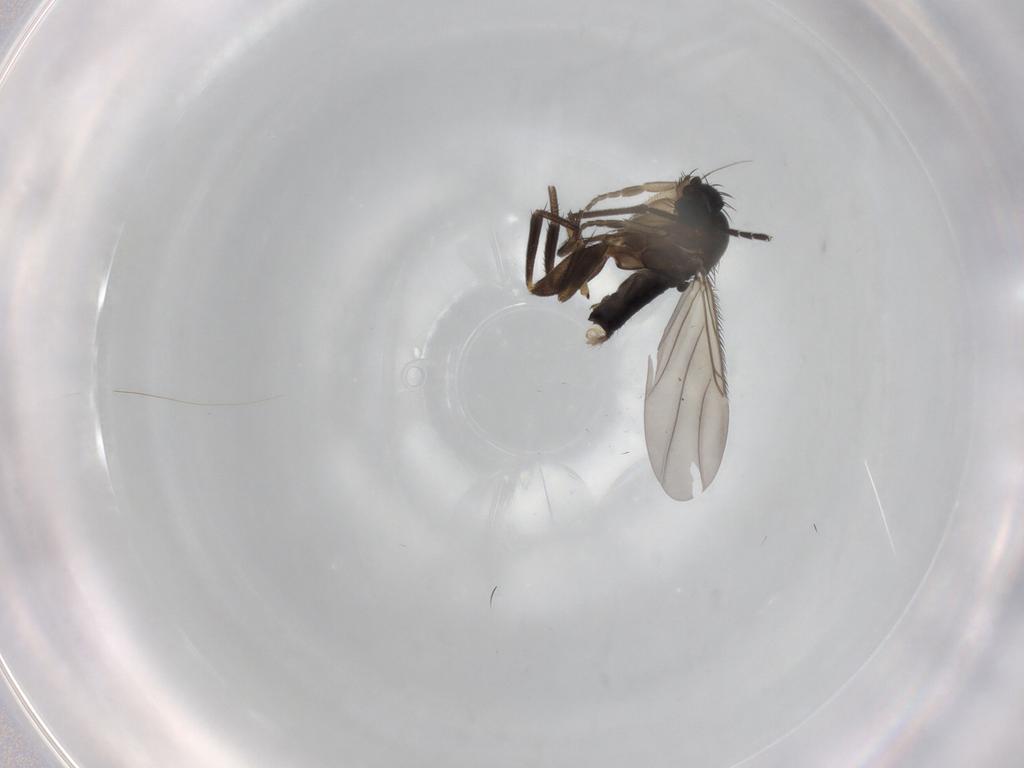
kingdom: Animalia
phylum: Arthropoda
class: Insecta
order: Diptera
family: Phoridae
